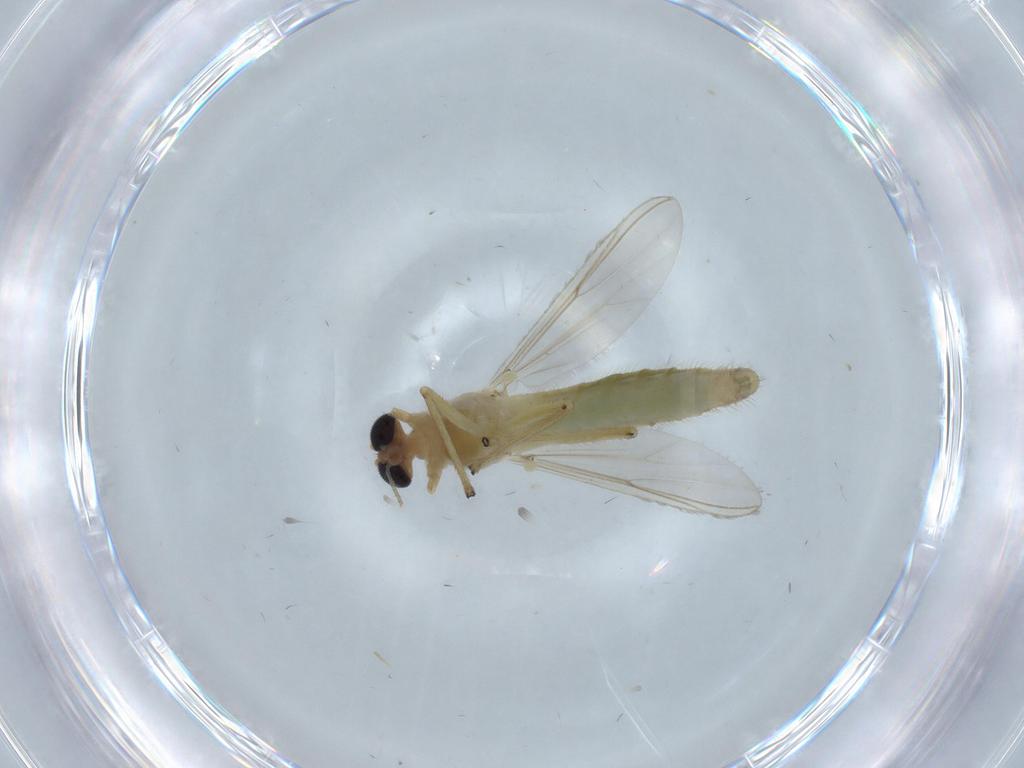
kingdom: Animalia
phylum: Arthropoda
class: Insecta
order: Diptera
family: Chironomidae
